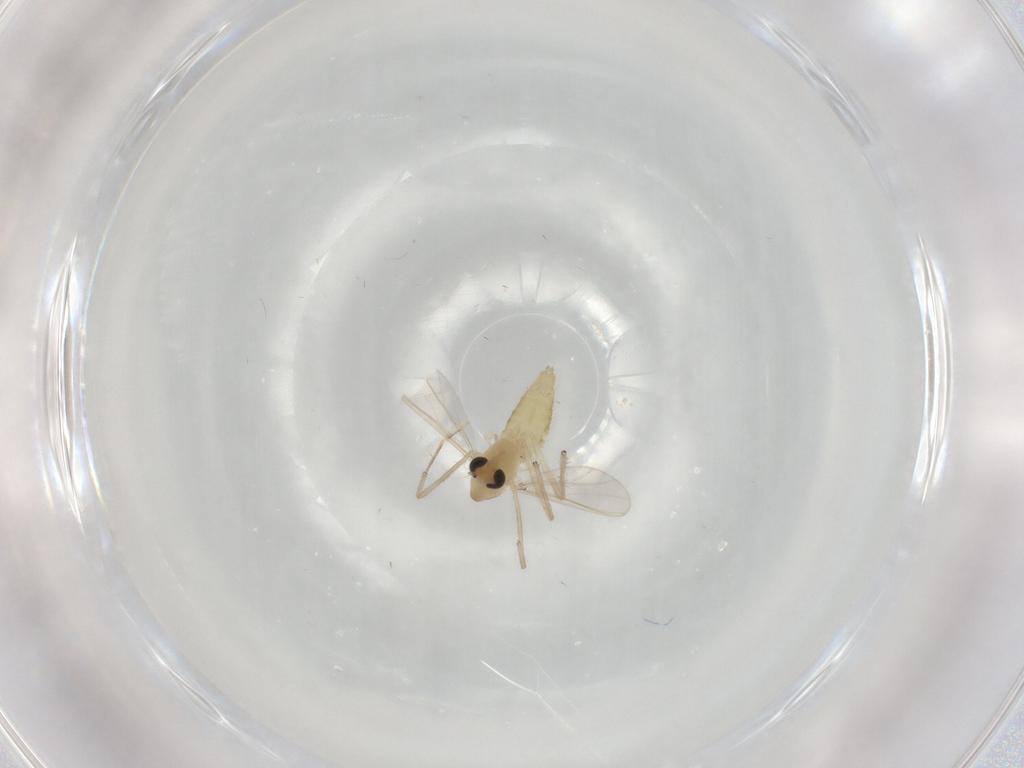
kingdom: Animalia
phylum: Arthropoda
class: Insecta
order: Diptera
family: Chironomidae
